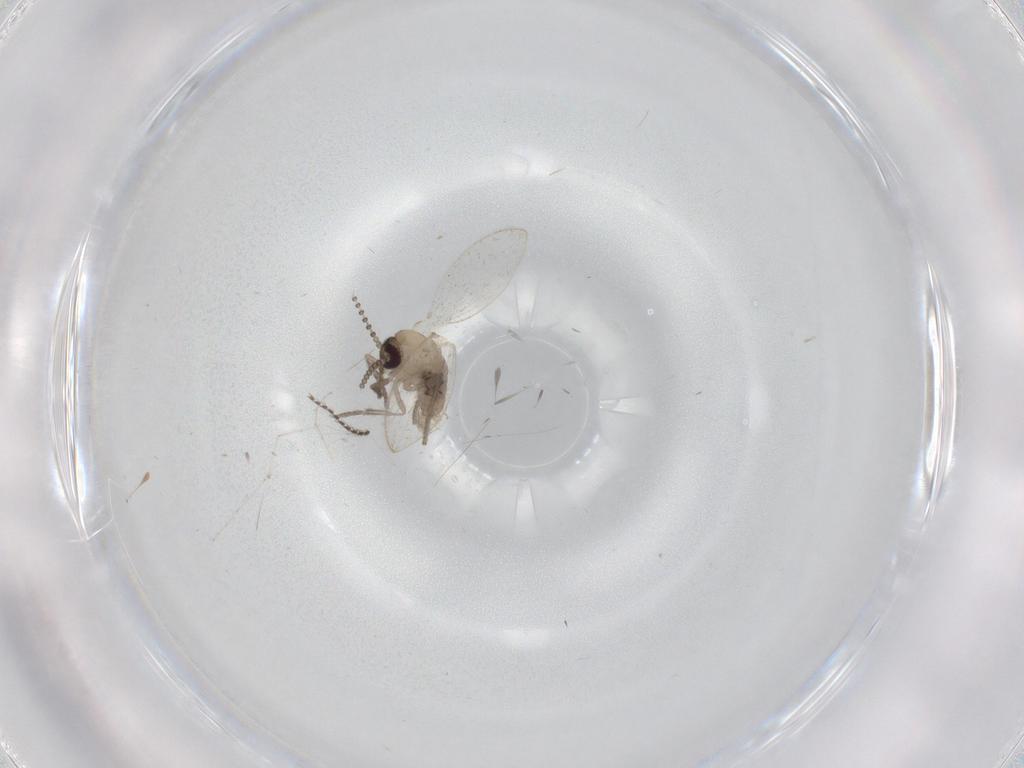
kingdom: Animalia
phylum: Arthropoda
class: Insecta
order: Diptera
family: Psychodidae
